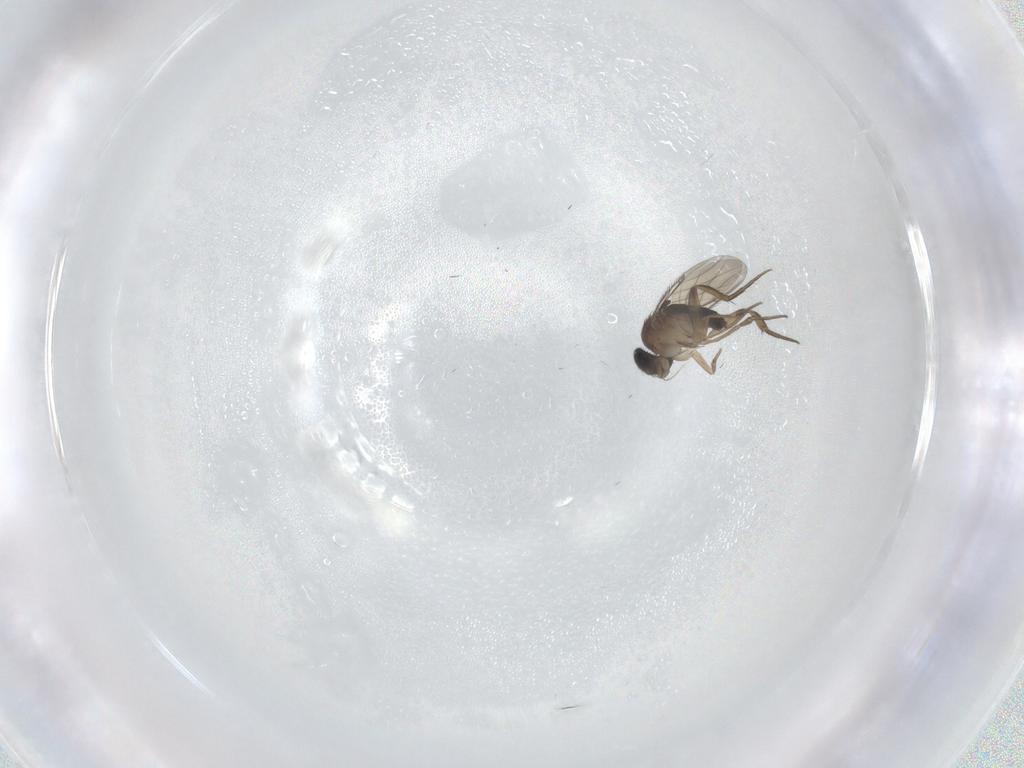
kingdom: Animalia
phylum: Arthropoda
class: Insecta
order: Diptera
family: Phoridae
